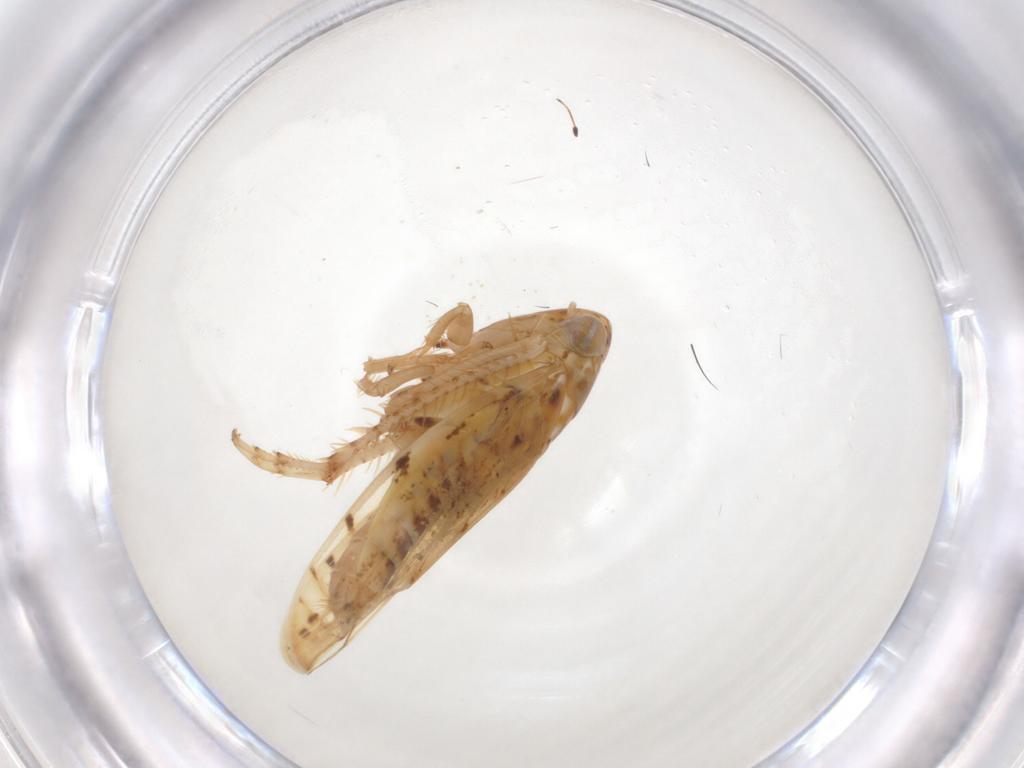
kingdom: Animalia
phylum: Arthropoda
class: Insecta
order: Hemiptera
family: Cicadellidae
